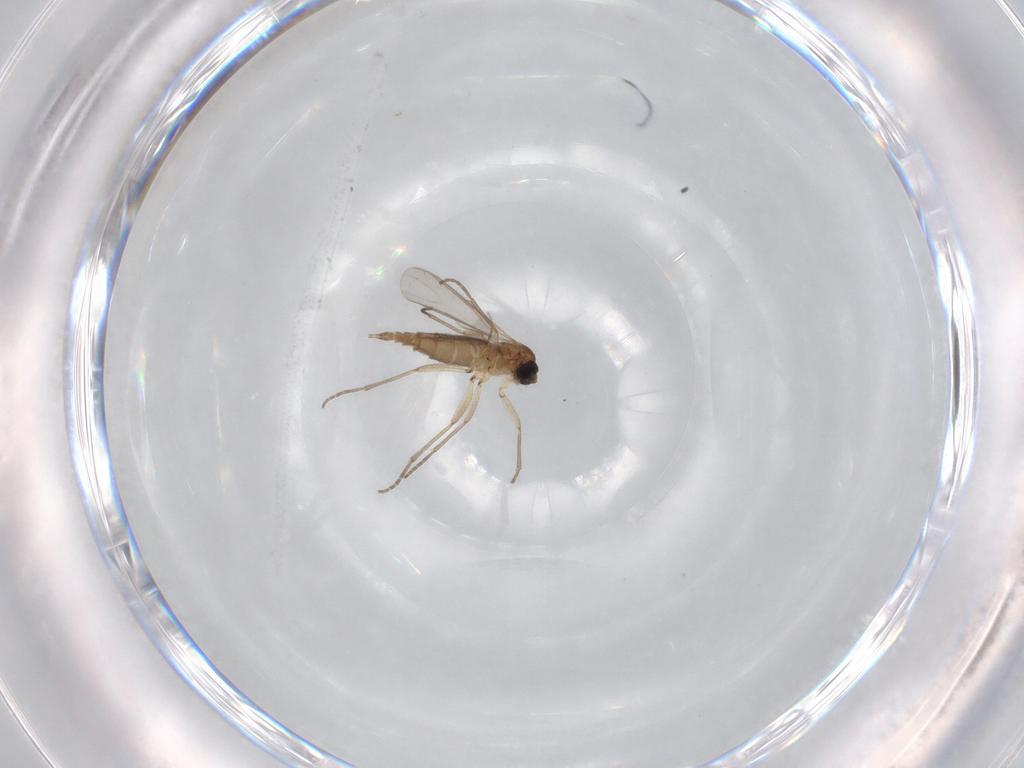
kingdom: Animalia
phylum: Arthropoda
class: Insecta
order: Diptera
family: Sciaridae
